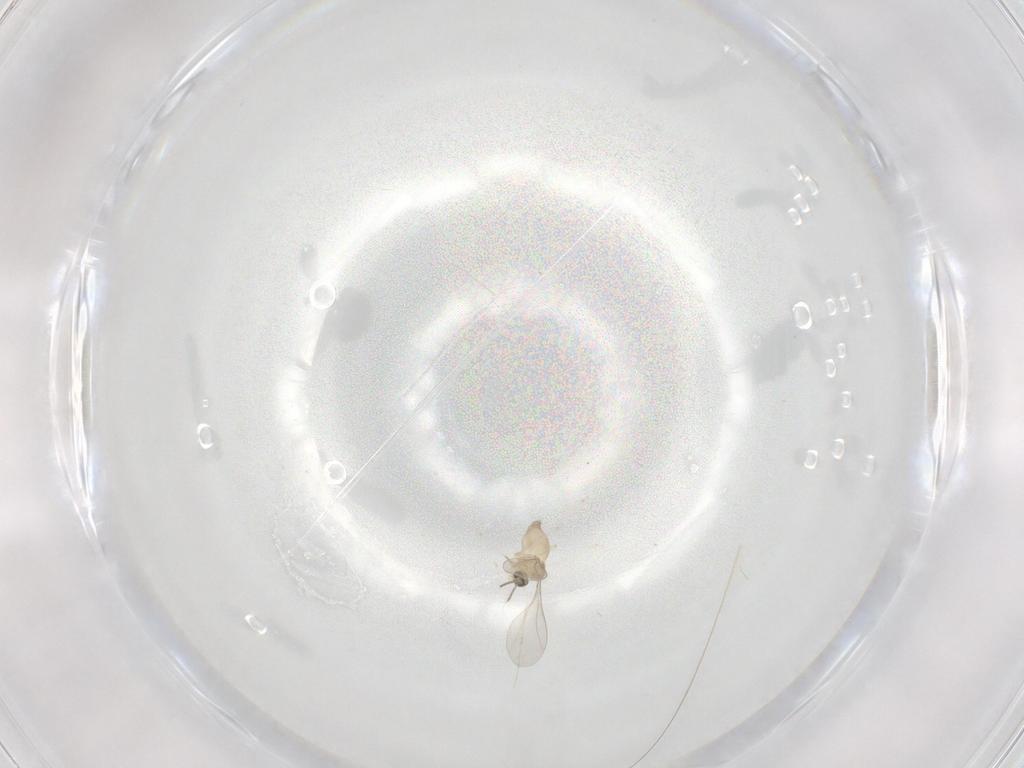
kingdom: Animalia
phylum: Arthropoda
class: Insecta
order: Diptera
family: Cecidomyiidae
